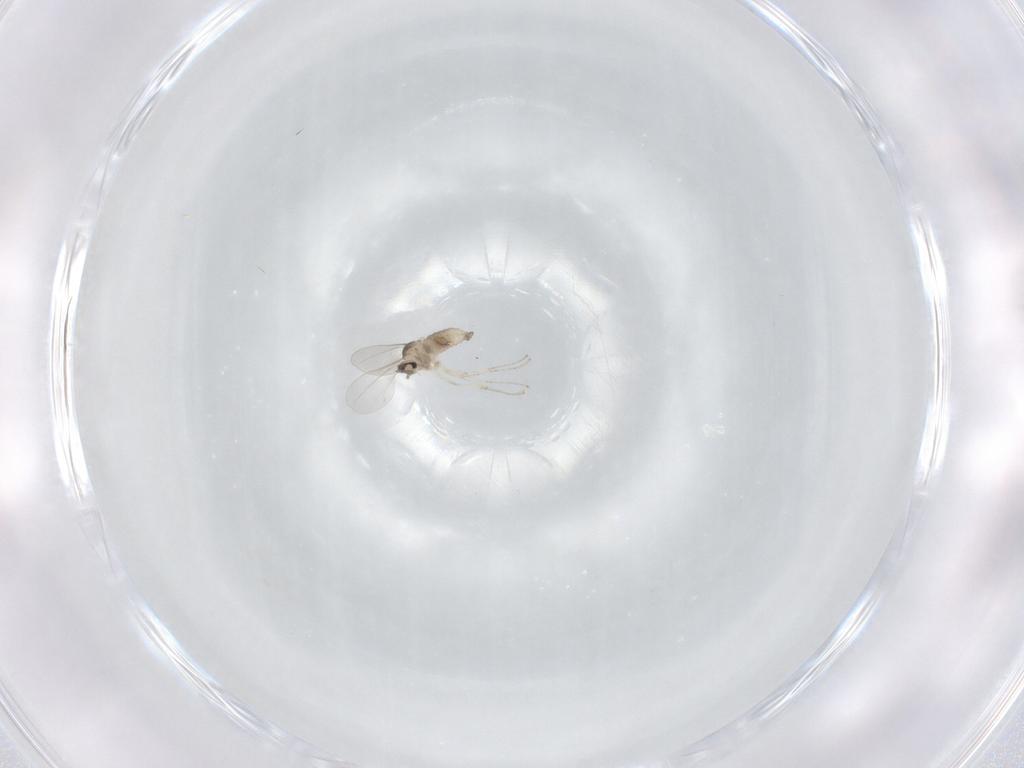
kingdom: Animalia
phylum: Arthropoda
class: Insecta
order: Diptera
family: Phoridae
